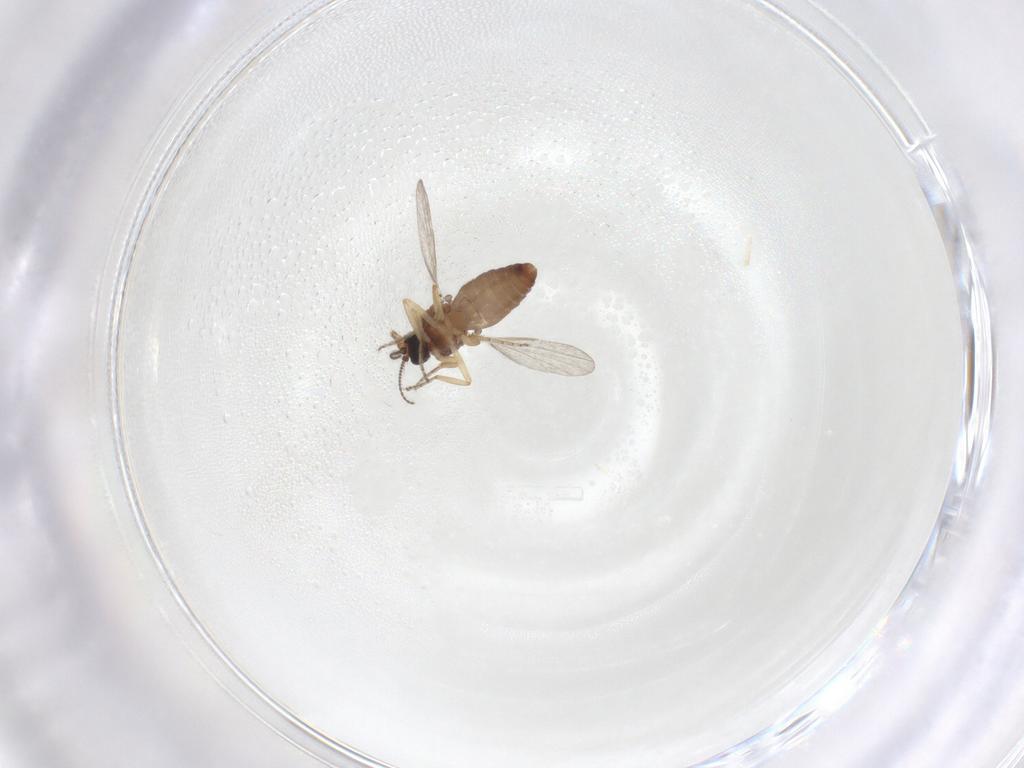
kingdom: Animalia
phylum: Arthropoda
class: Insecta
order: Diptera
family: Ceratopogonidae
